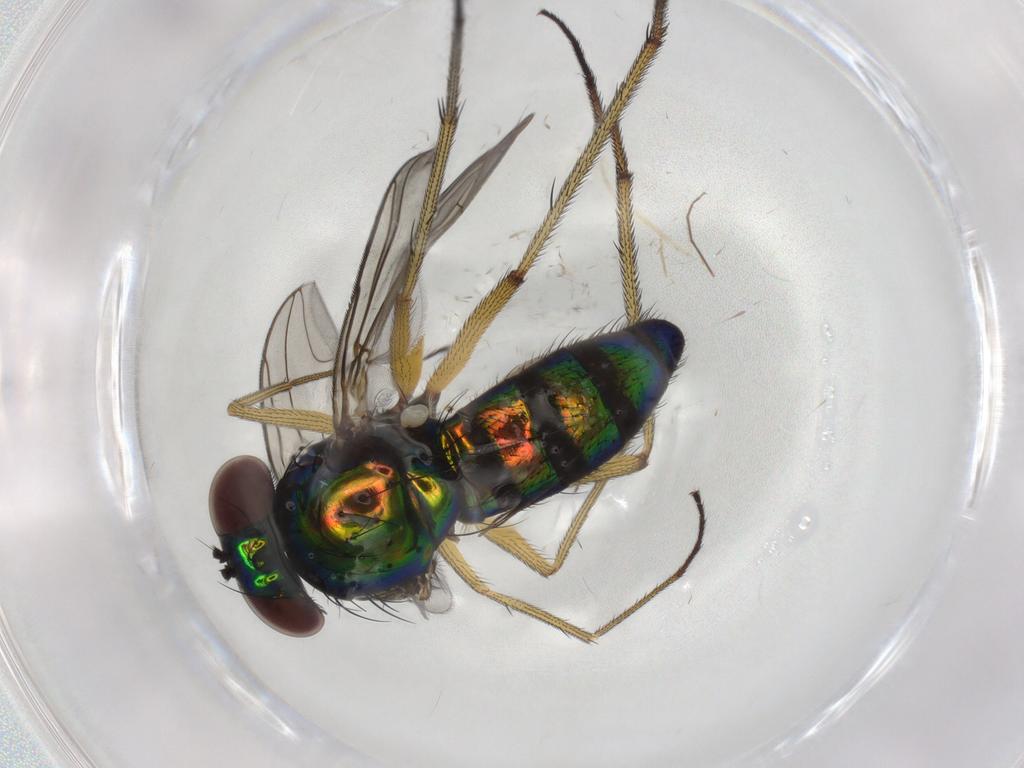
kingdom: Animalia
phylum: Arthropoda
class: Insecta
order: Diptera
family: Dolichopodidae
